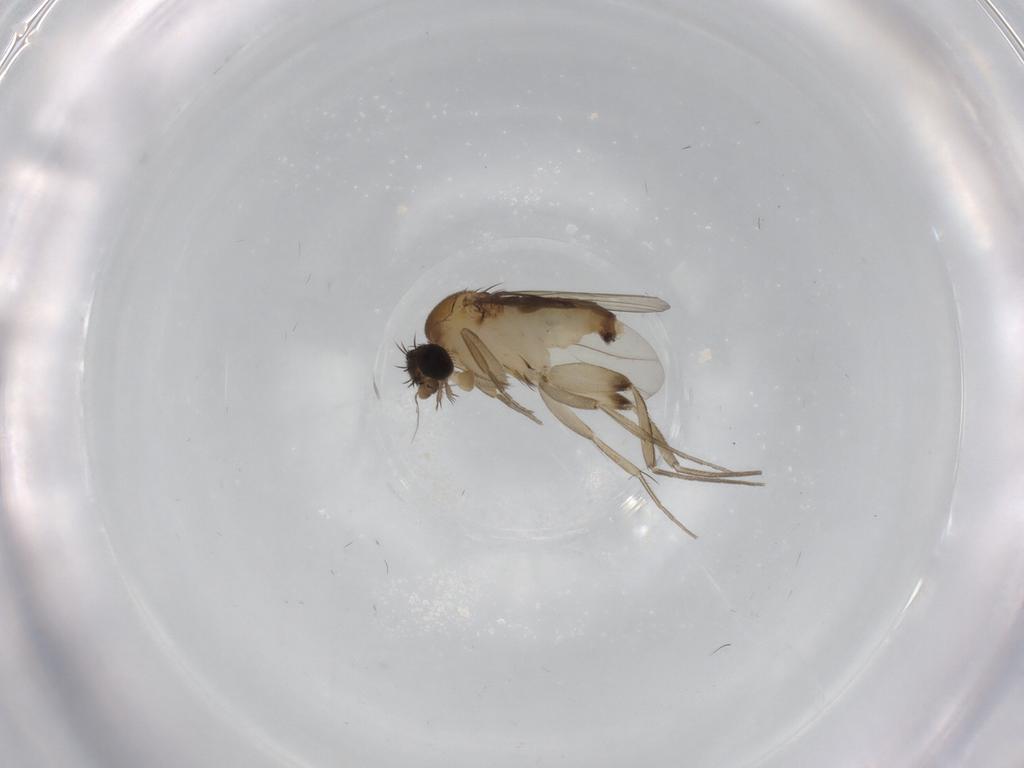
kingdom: Animalia
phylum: Arthropoda
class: Insecta
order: Diptera
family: Phoridae
